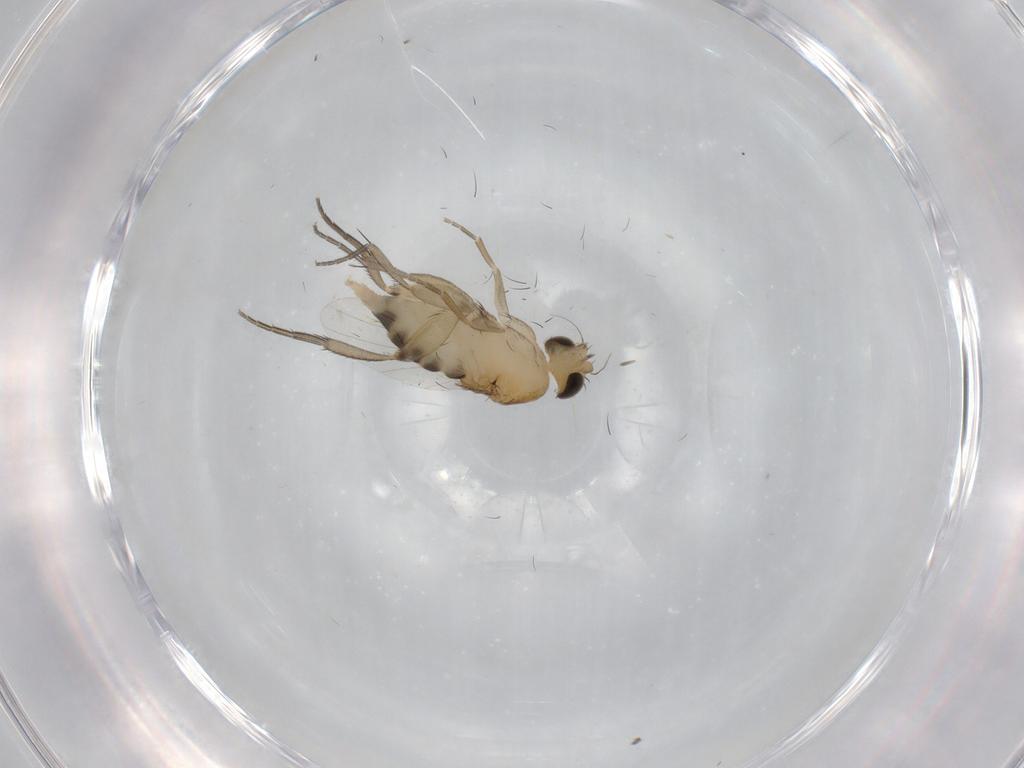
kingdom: Animalia
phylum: Arthropoda
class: Insecta
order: Diptera
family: Phoridae
